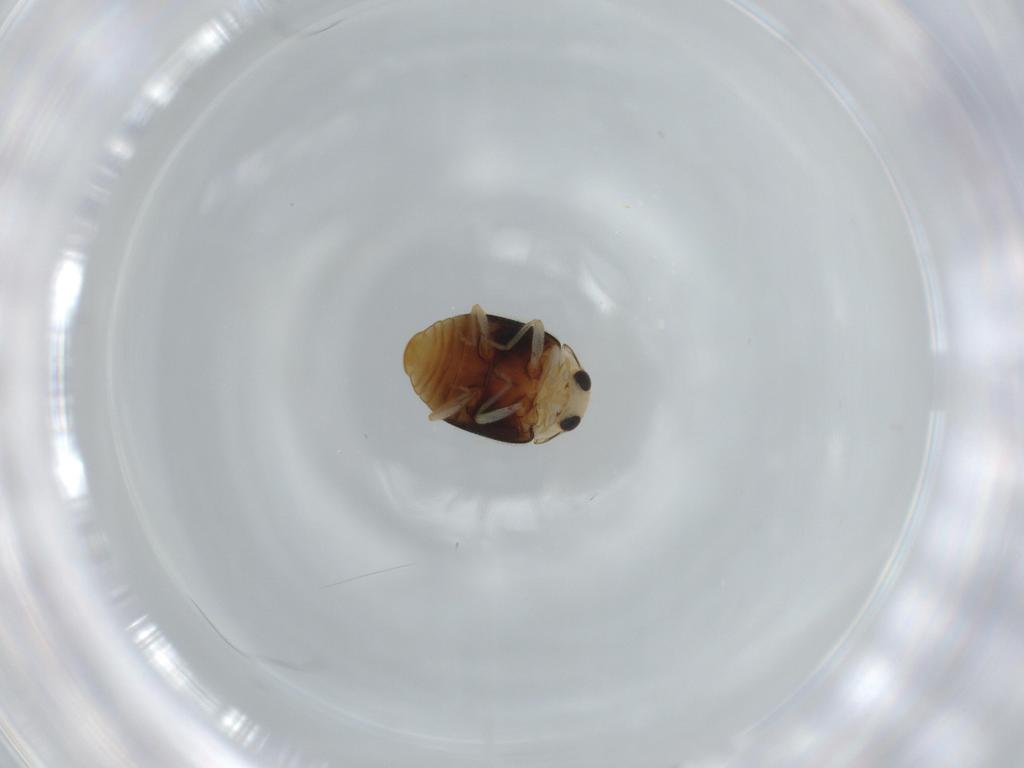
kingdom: Animalia
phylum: Arthropoda
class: Insecta
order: Coleoptera
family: Coccinellidae
